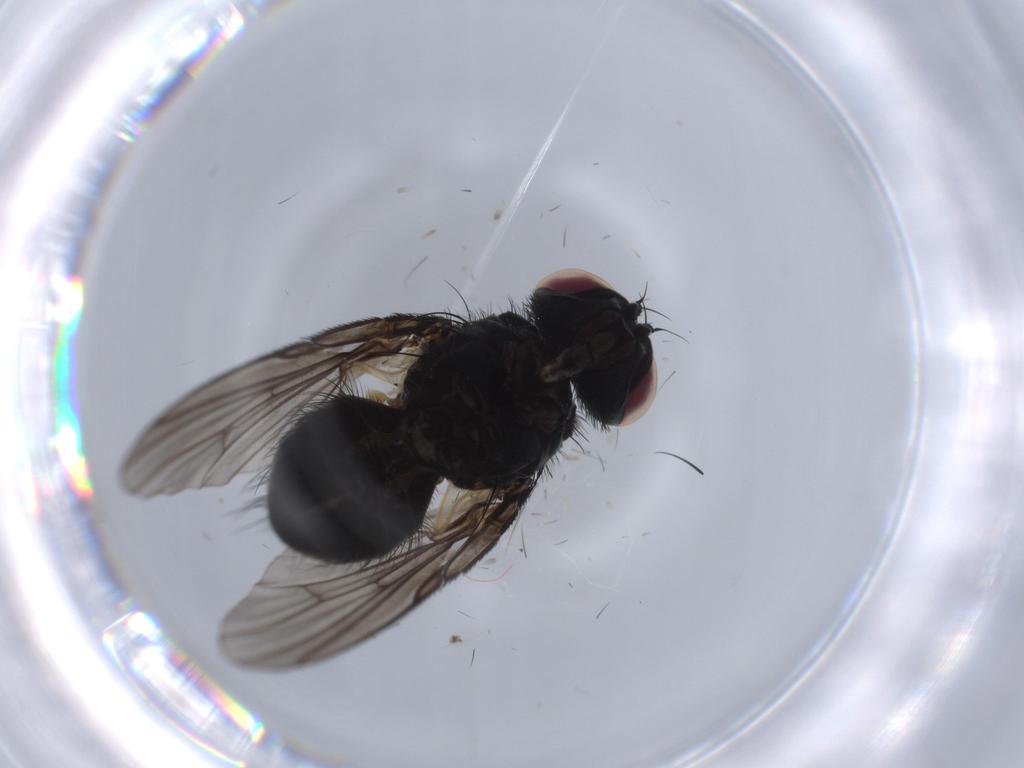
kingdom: Animalia
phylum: Arthropoda
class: Insecta
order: Diptera
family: Muscidae
